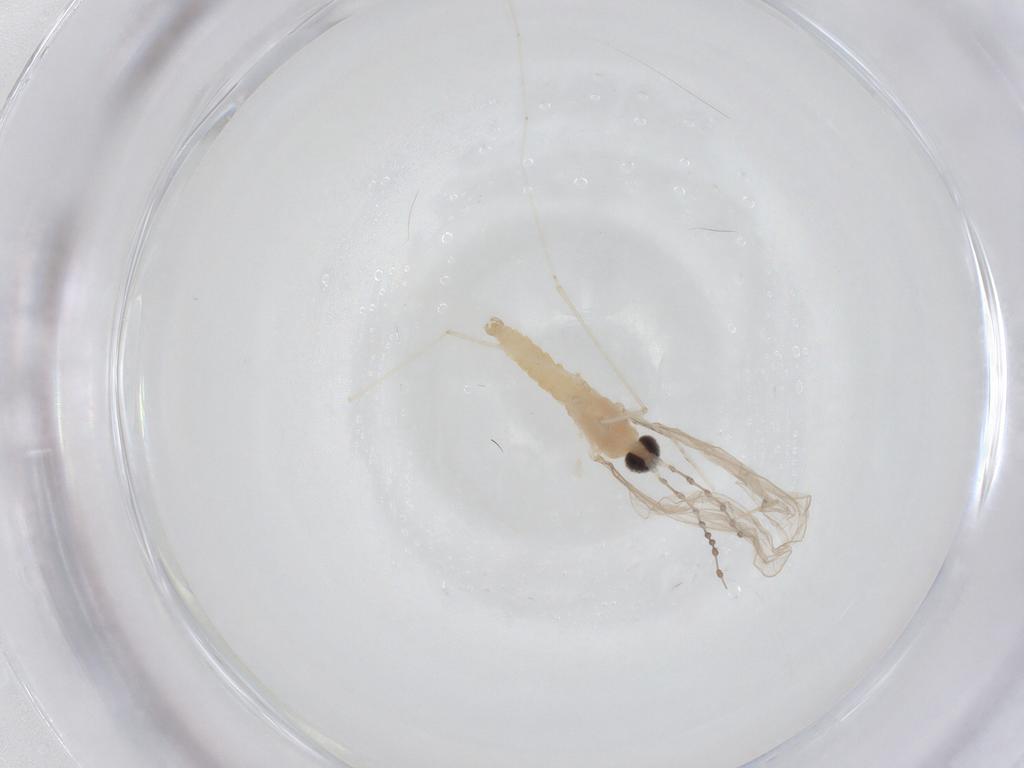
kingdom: Animalia
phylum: Arthropoda
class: Insecta
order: Diptera
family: Cecidomyiidae
